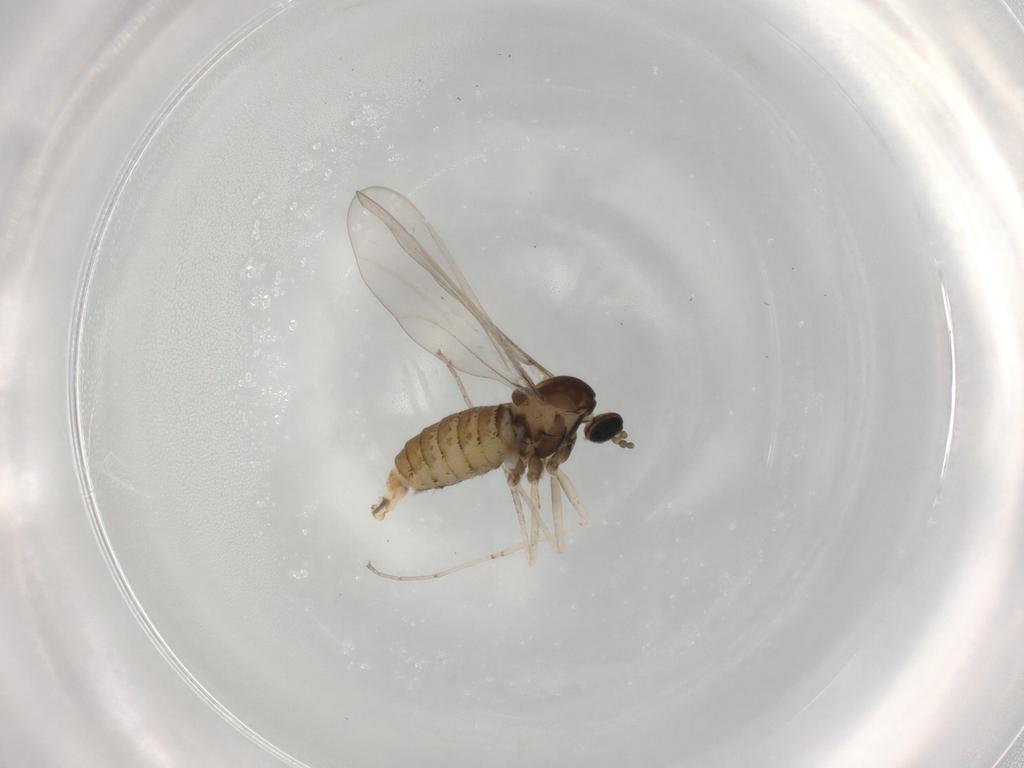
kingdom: Animalia
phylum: Arthropoda
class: Insecta
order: Diptera
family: Cecidomyiidae
